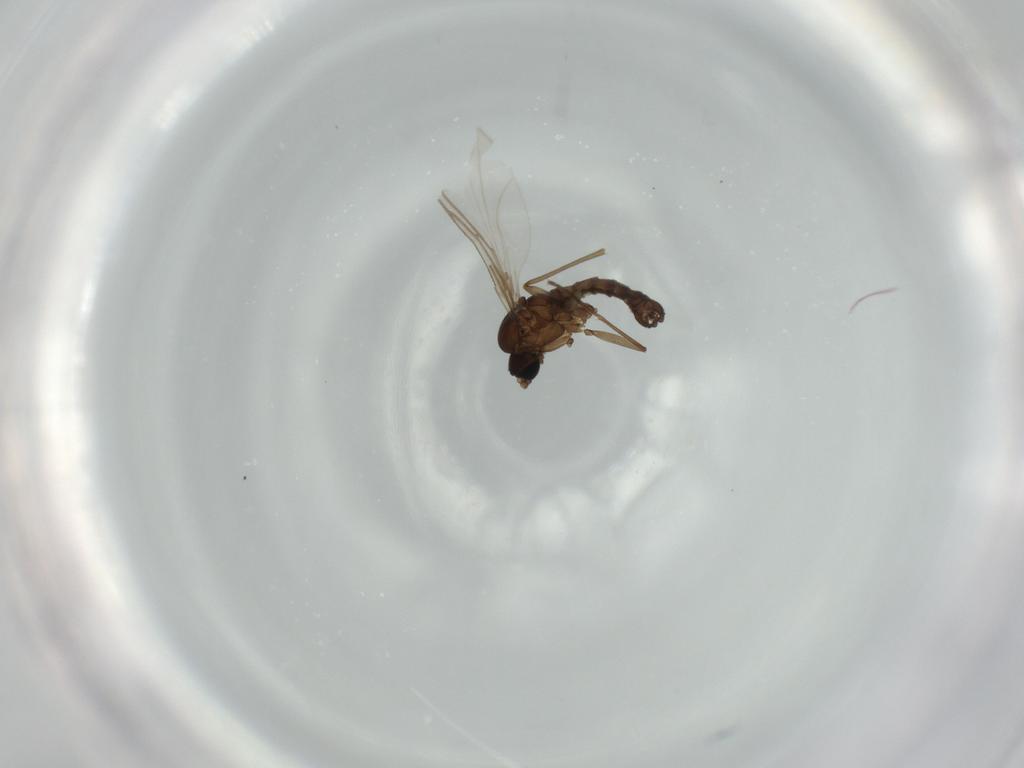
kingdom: Animalia
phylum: Arthropoda
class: Insecta
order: Diptera
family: Sciaridae
